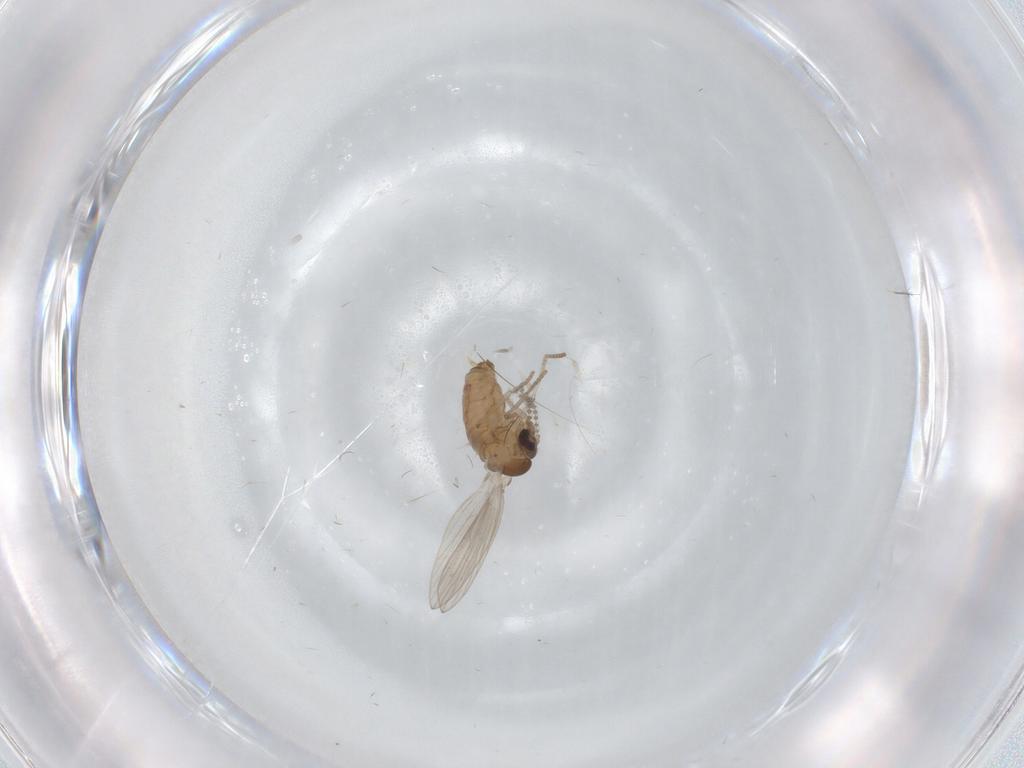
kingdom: Animalia
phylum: Arthropoda
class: Insecta
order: Diptera
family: Psychodidae
